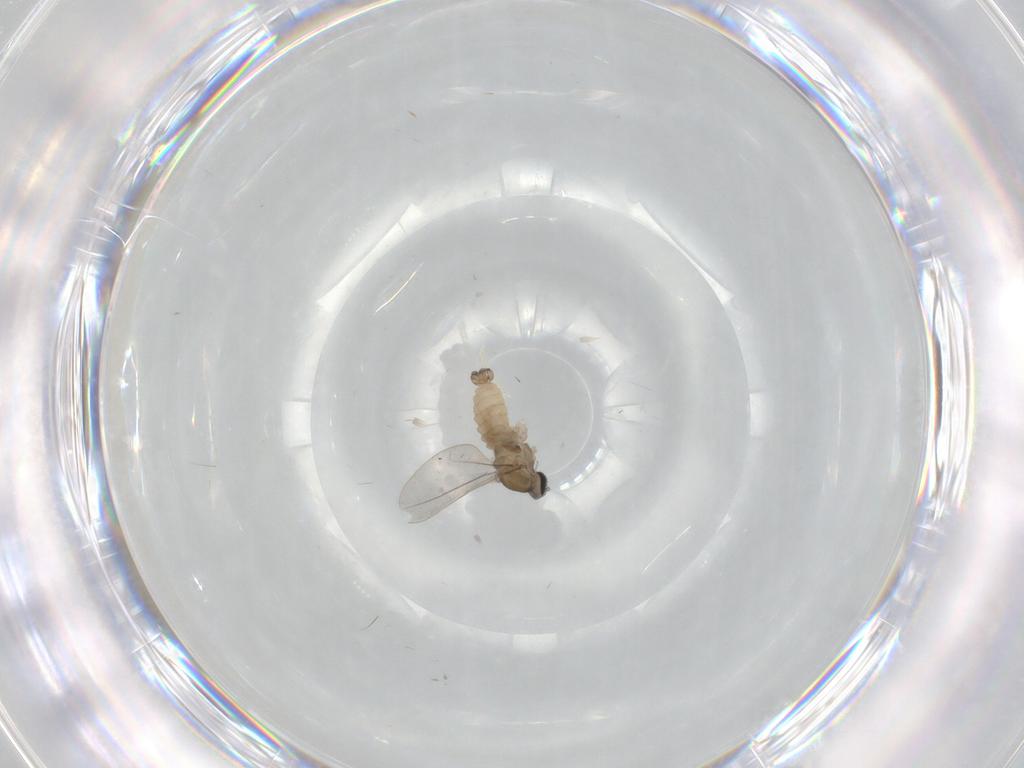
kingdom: Animalia
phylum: Arthropoda
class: Insecta
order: Diptera
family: Cecidomyiidae
